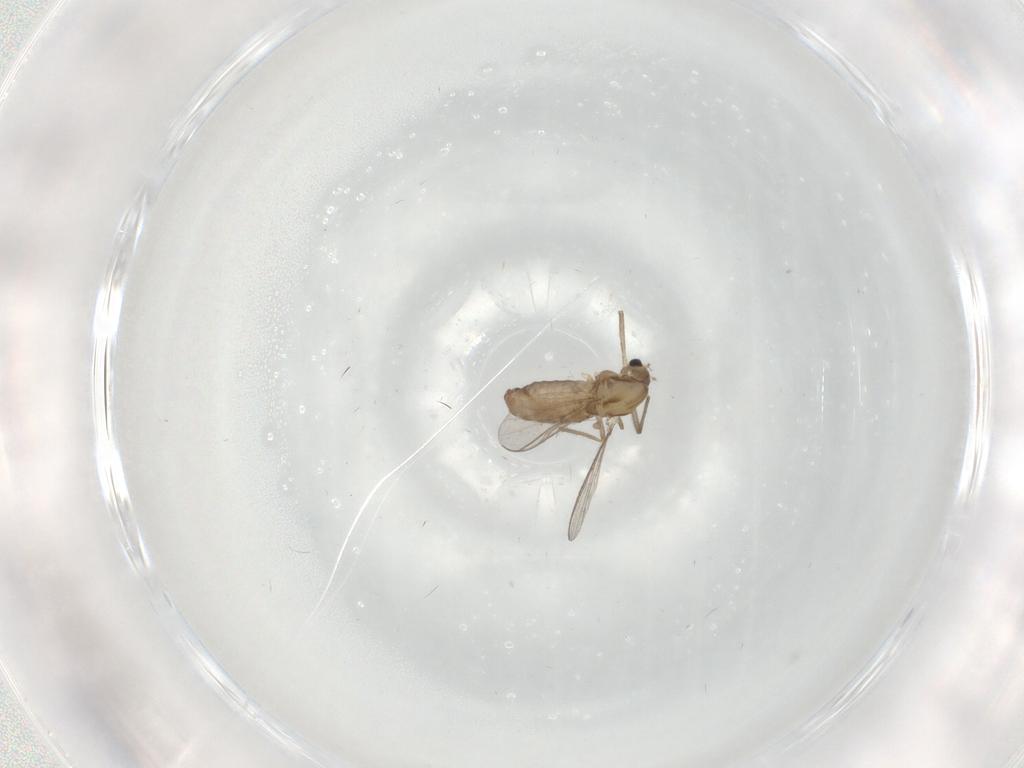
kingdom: Animalia
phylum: Arthropoda
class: Insecta
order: Diptera
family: Chironomidae
